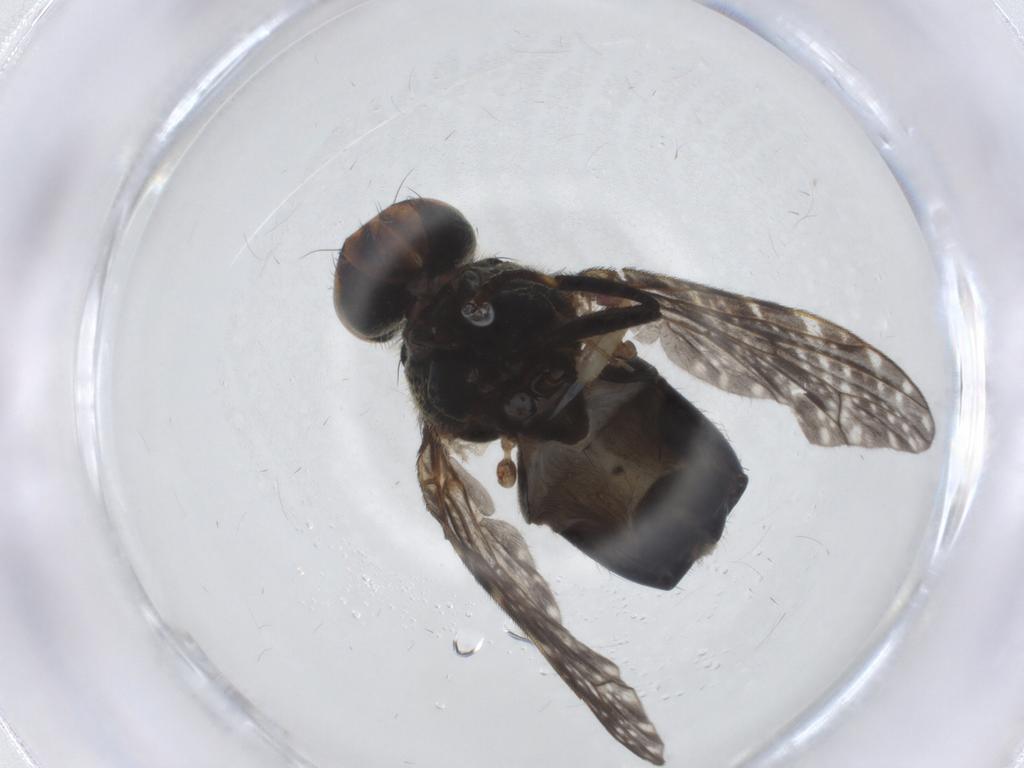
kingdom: Animalia
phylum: Arthropoda
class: Insecta
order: Diptera
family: Platystomatidae
